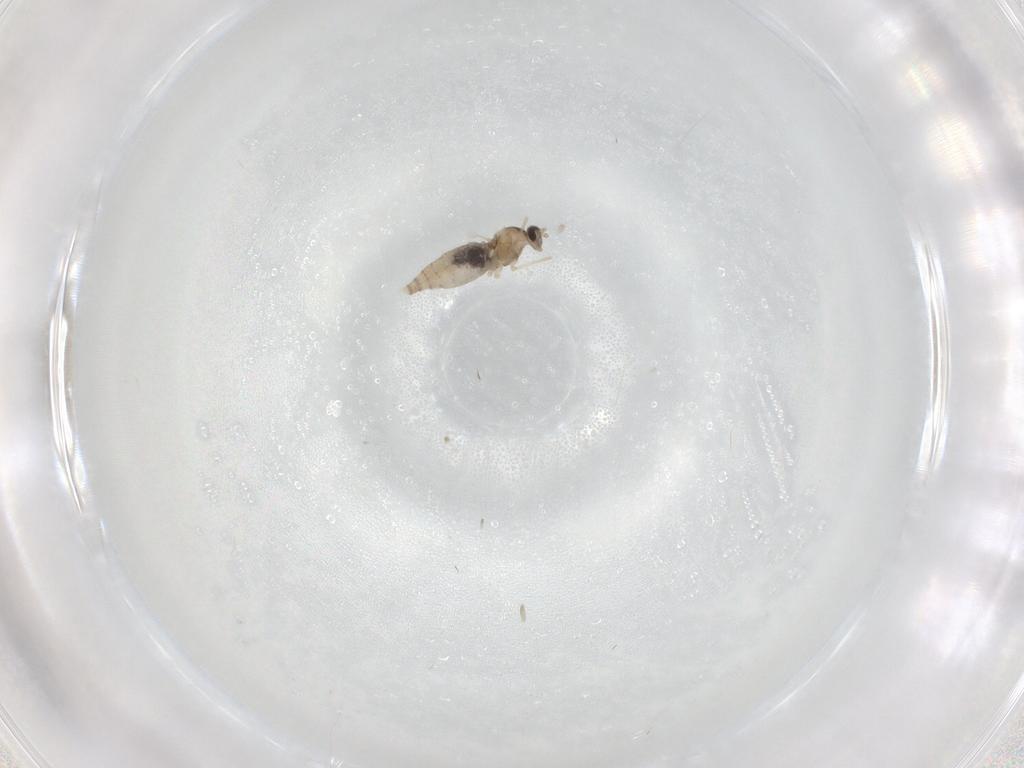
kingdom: Animalia
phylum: Arthropoda
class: Insecta
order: Diptera
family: Cecidomyiidae
